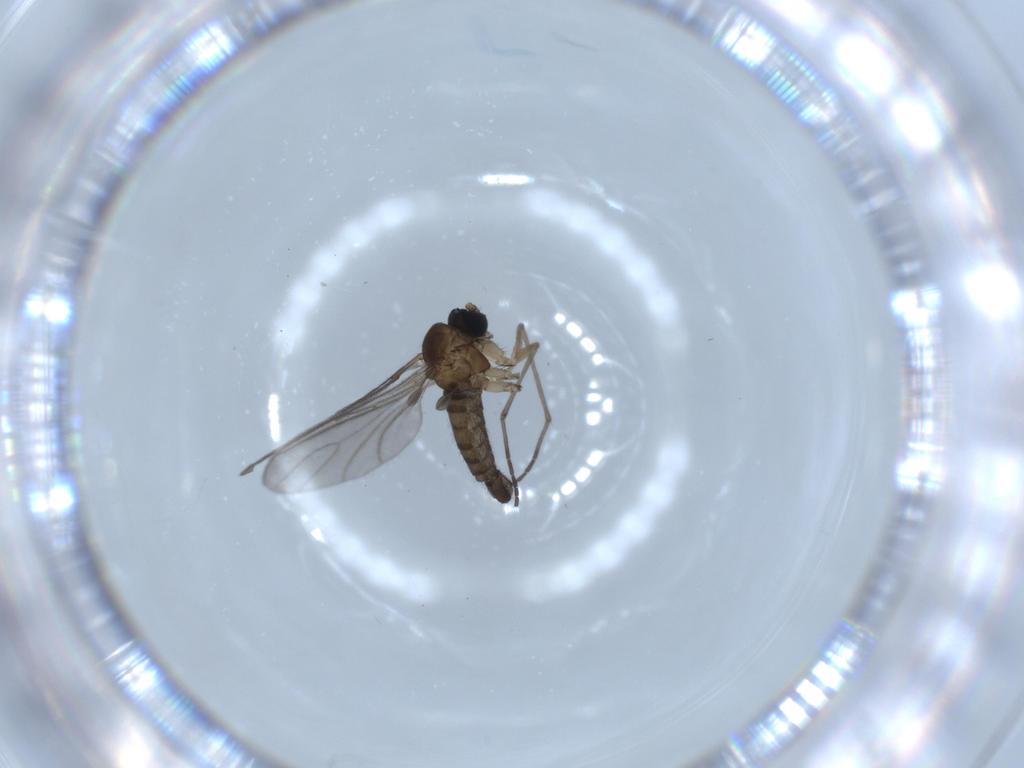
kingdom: Animalia
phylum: Arthropoda
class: Insecta
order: Diptera
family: Sciaridae
